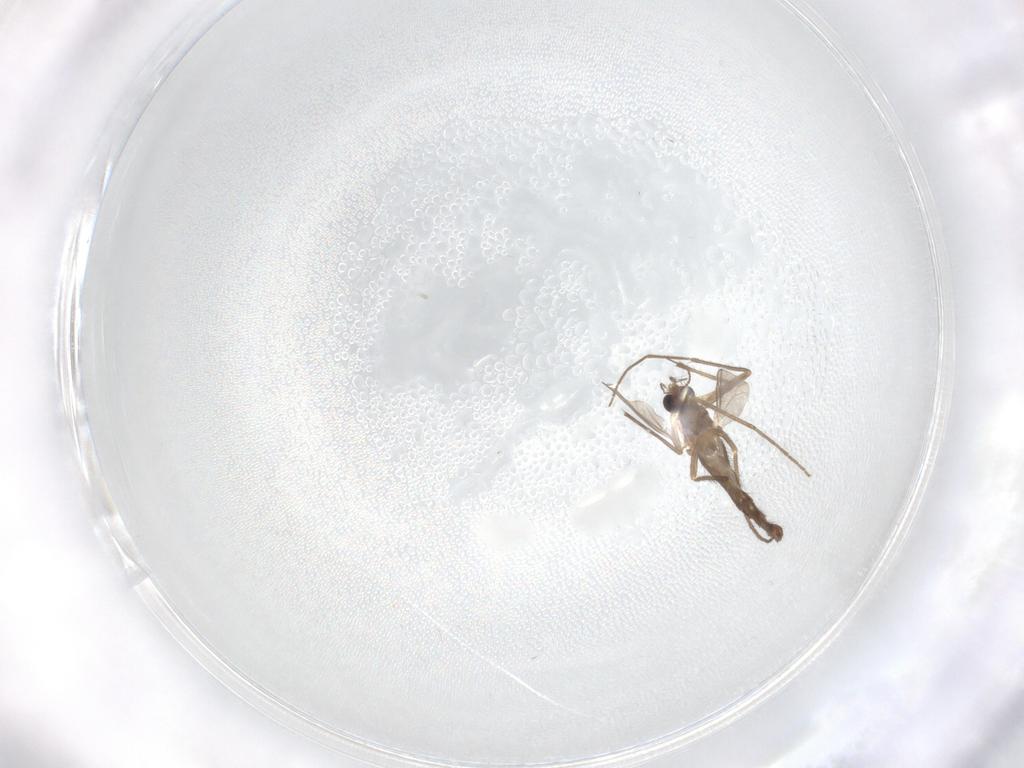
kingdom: Animalia
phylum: Arthropoda
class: Insecta
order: Diptera
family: Chironomidae
